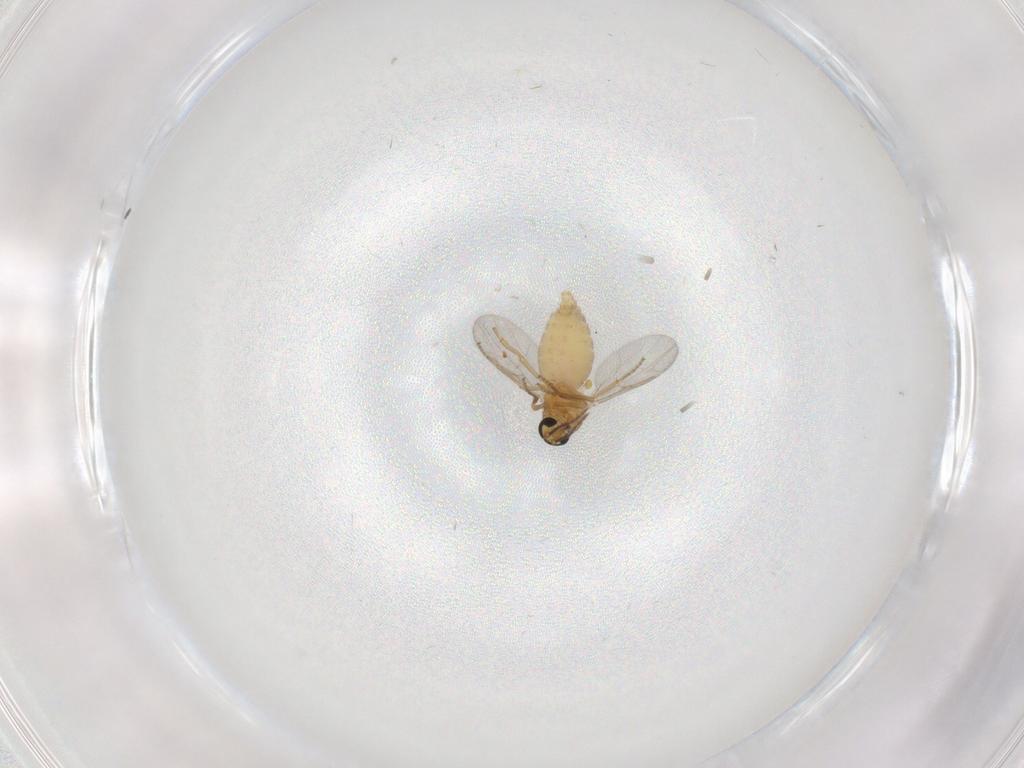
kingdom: Animalia
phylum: Arthropoda
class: Insecta
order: Diptera
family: Ceratopogonidae
